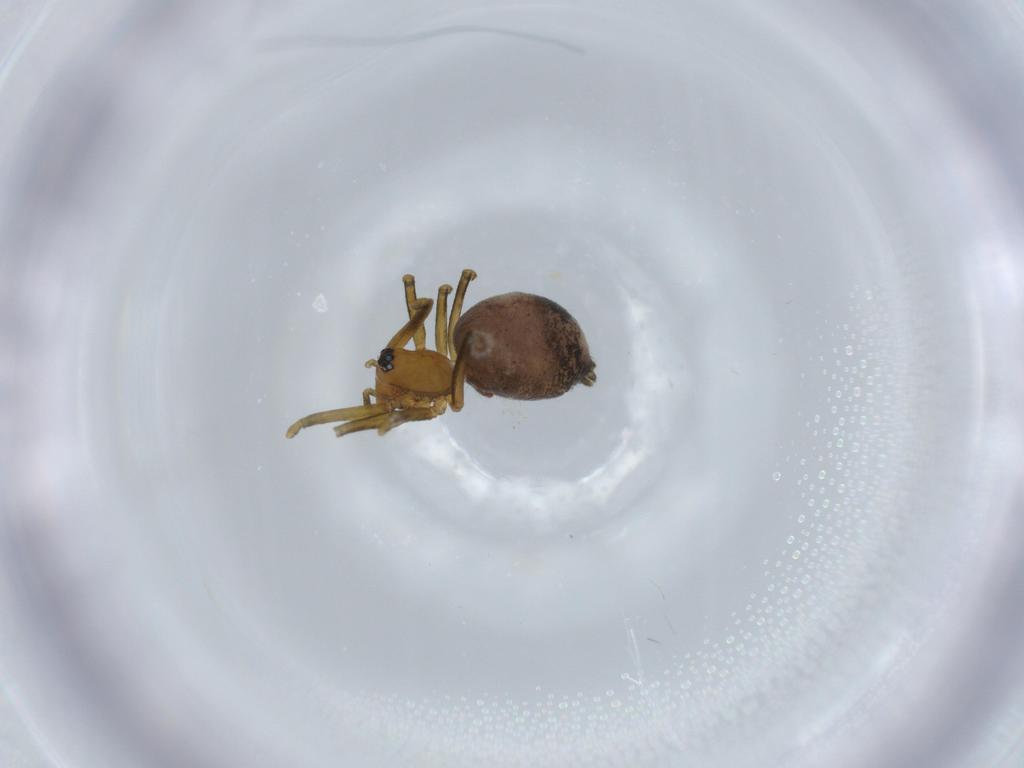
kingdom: Animalia
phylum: Arthropoda
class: Arachnida
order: Araneae
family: Linyphiidae
